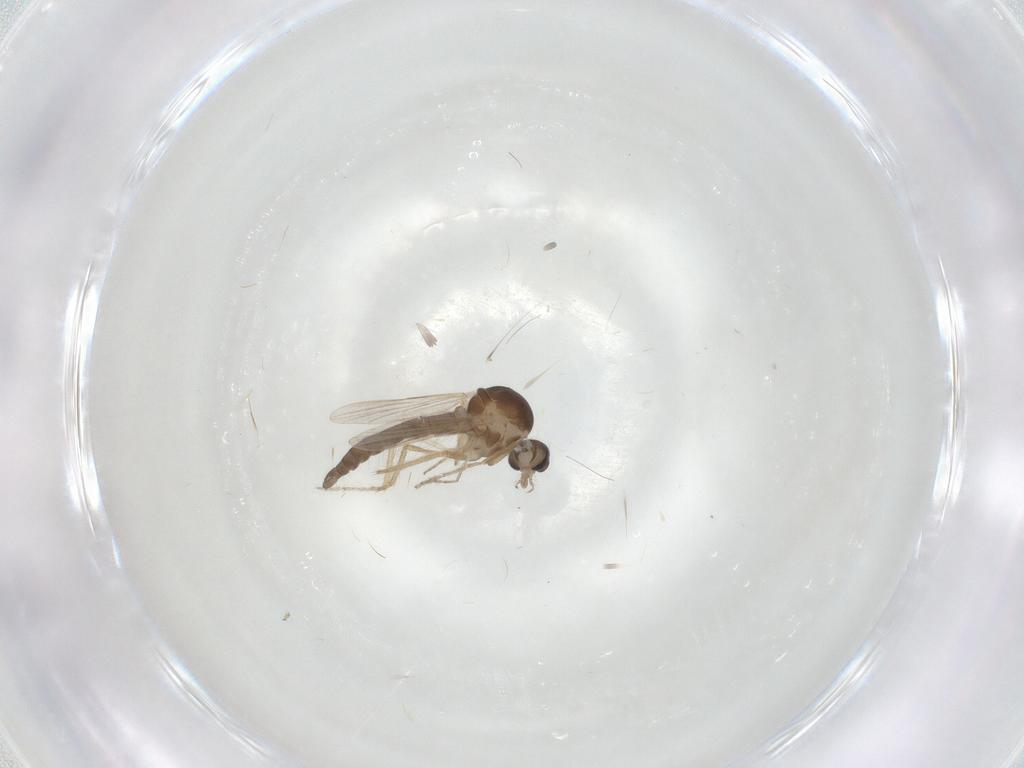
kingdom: Animalia
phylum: Arthropoda
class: Insecta
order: Diptera
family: Ceratopogonidae
